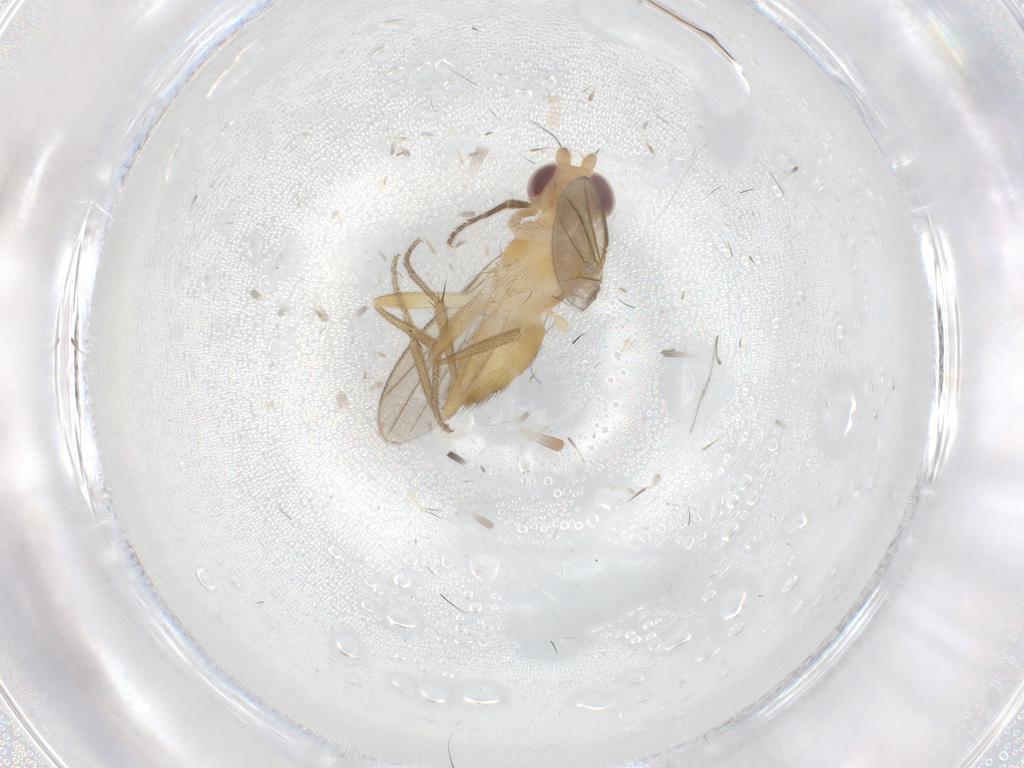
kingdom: Animalia
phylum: Arthropoda
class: Insecta
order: Diptera
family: Clusiidae
